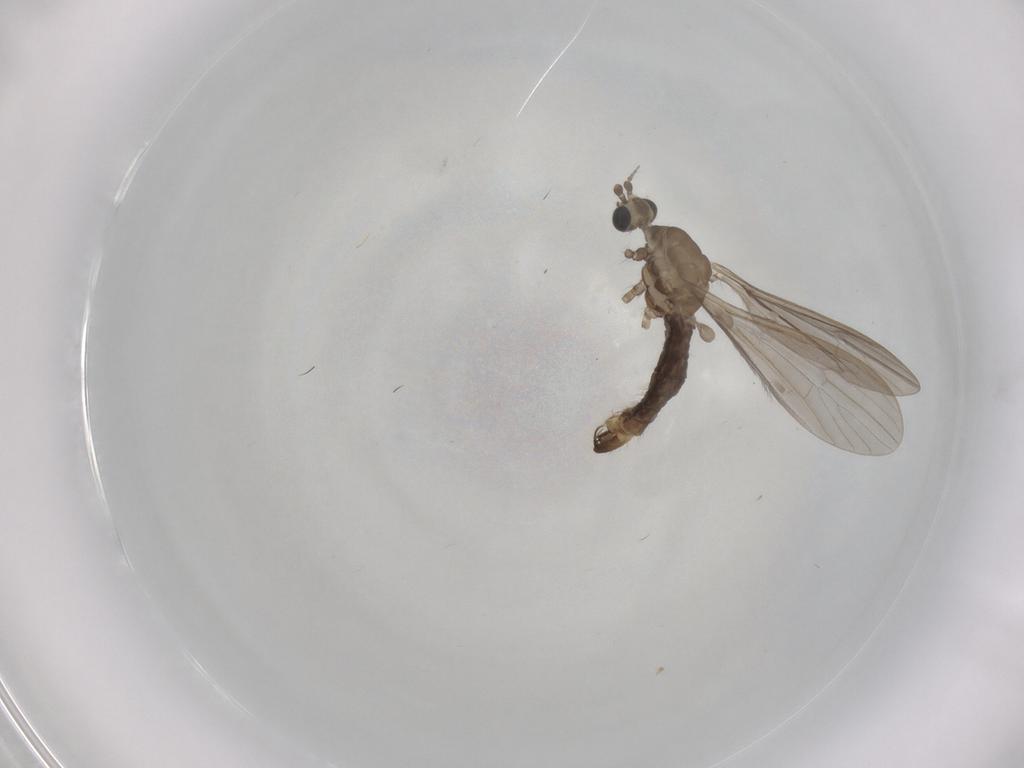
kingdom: Animalia
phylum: Arthropoda
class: Insecta
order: Diptera
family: Limoniidae
